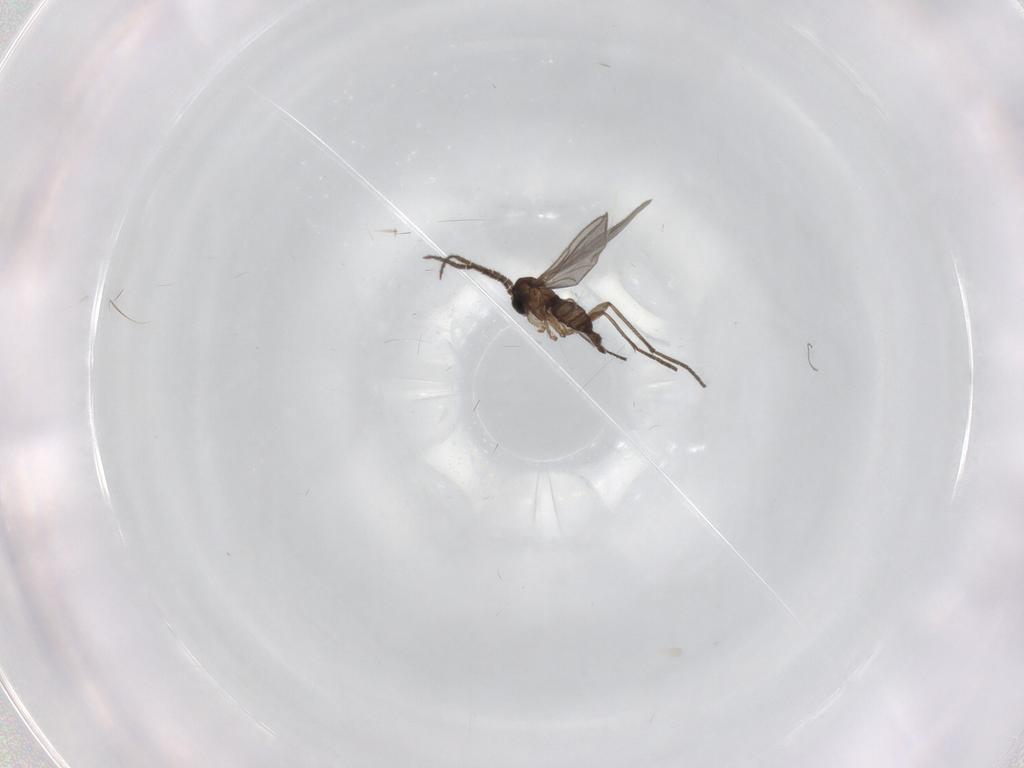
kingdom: Animalia
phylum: Arthropoda
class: Insecta
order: Diptera
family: Sciaridae
